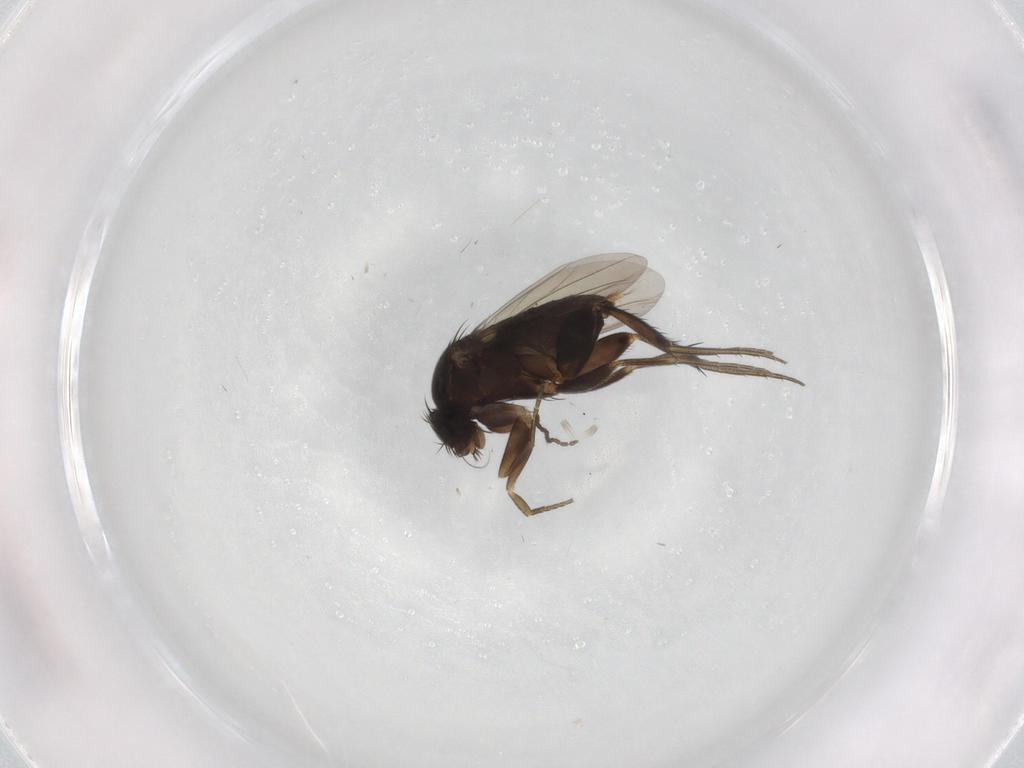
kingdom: Animalia
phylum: Arthropoda
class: Insecta
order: Diptera
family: Phoridae
